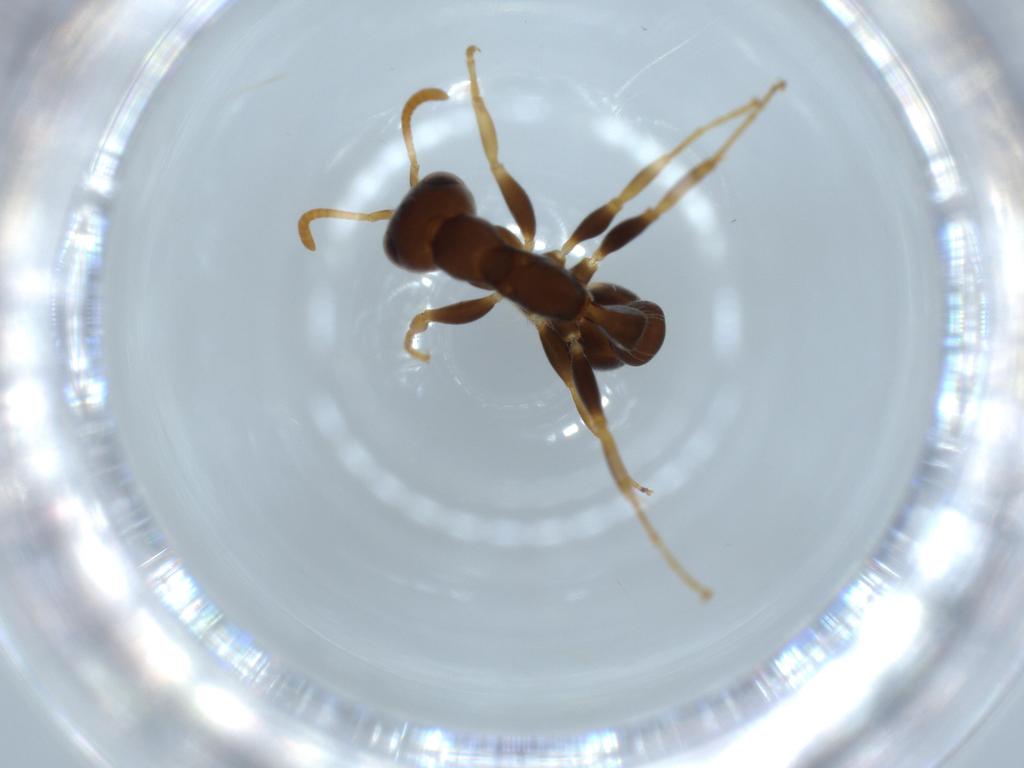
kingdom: Animalia
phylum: Arthropoda
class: Insecta
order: Hymenoptera
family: Formicidae
